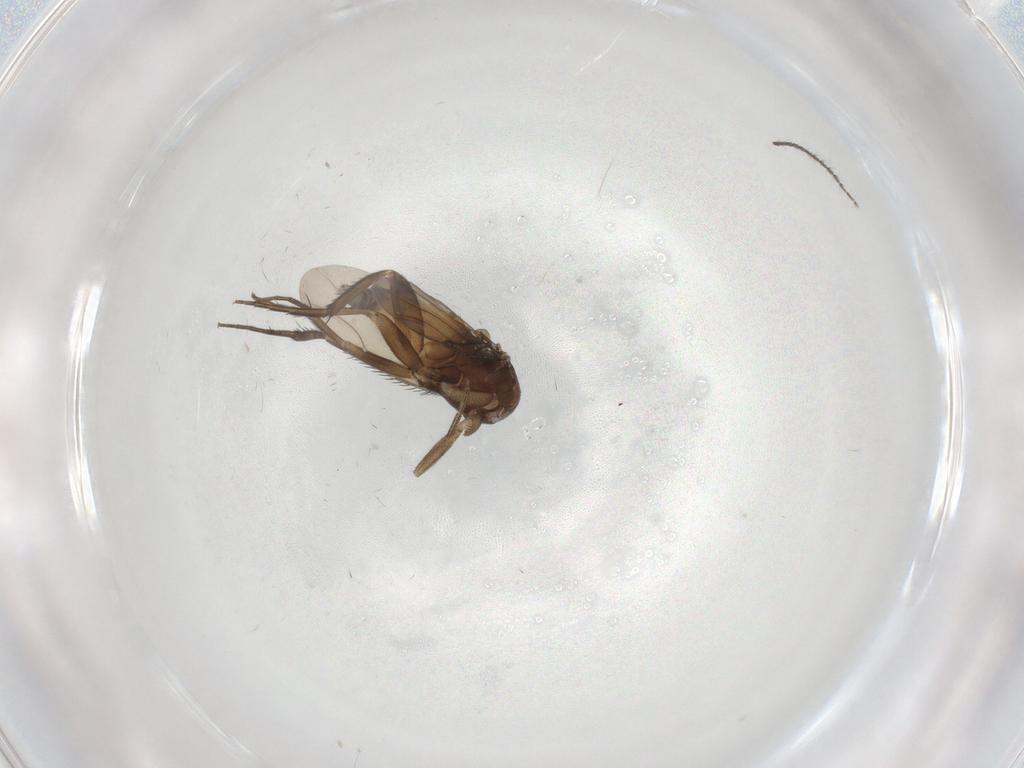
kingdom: Animalia
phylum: Arthropoda
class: Insecta
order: Diptera
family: Phoridae
